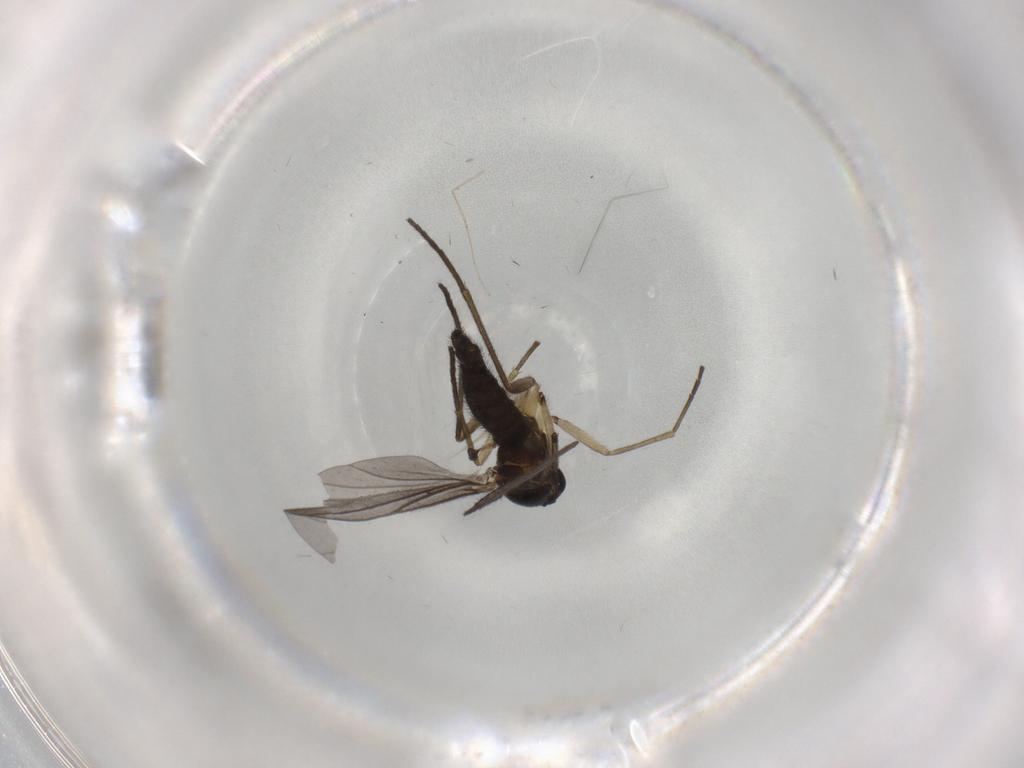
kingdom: Animalia
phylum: Arthropoda
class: Insecta
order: Diptera
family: Sciaridae
